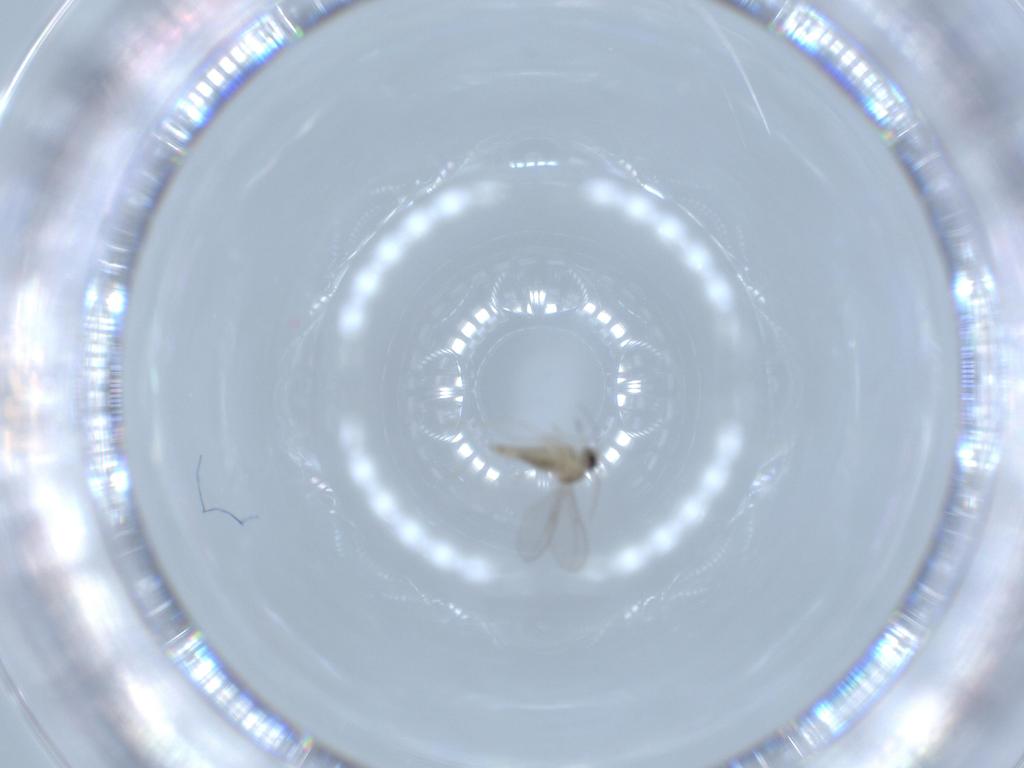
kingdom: Animalia
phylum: Arthropoda
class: Insecta
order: Diptera
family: Cecidomyiidae
